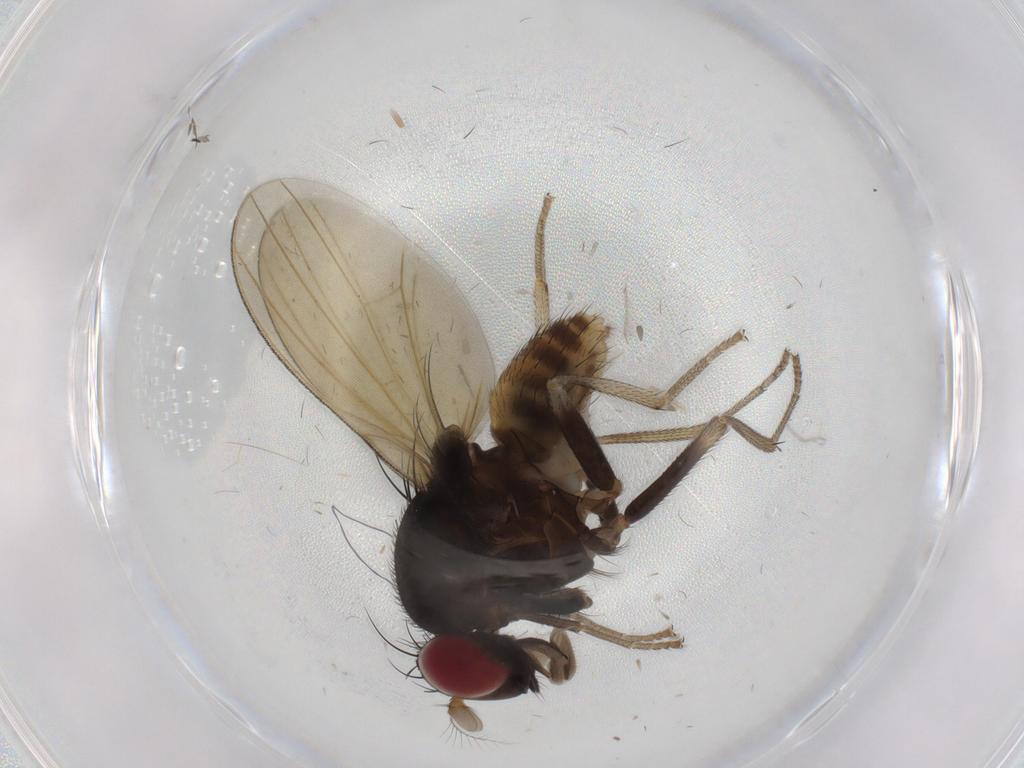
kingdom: Animalia
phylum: Arthropoda
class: Insecta
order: Diptera
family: Sciaridae
